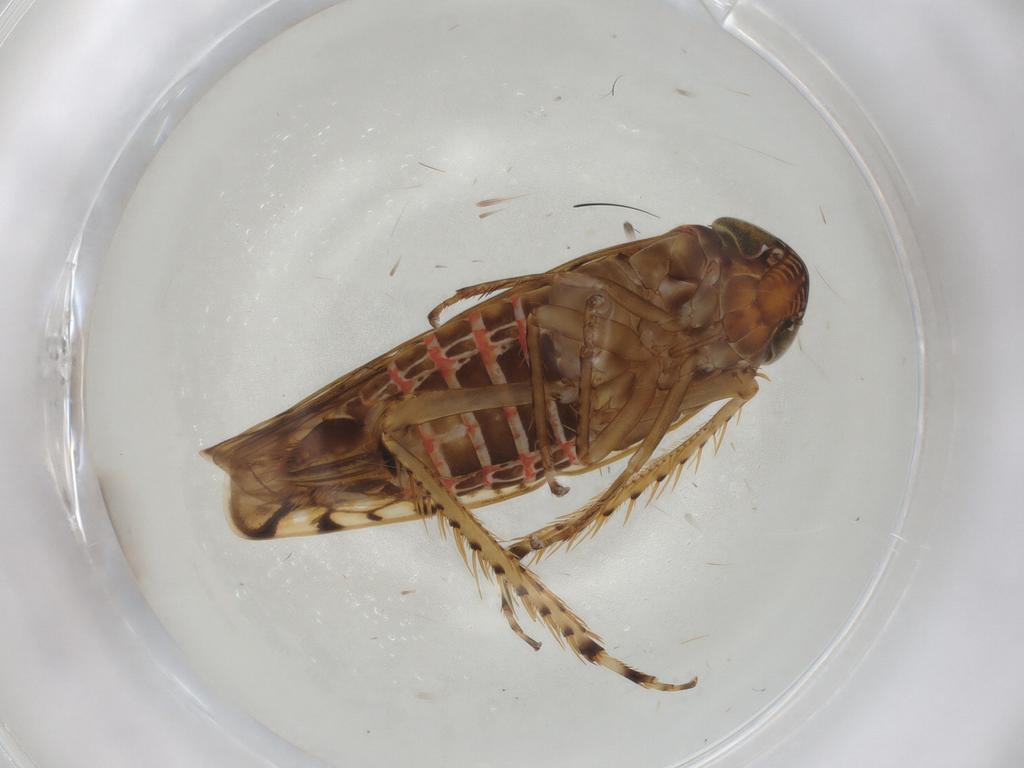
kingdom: Animalia
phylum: Arthropoda
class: Insecta
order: Hemiptera
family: Cicadellidae
